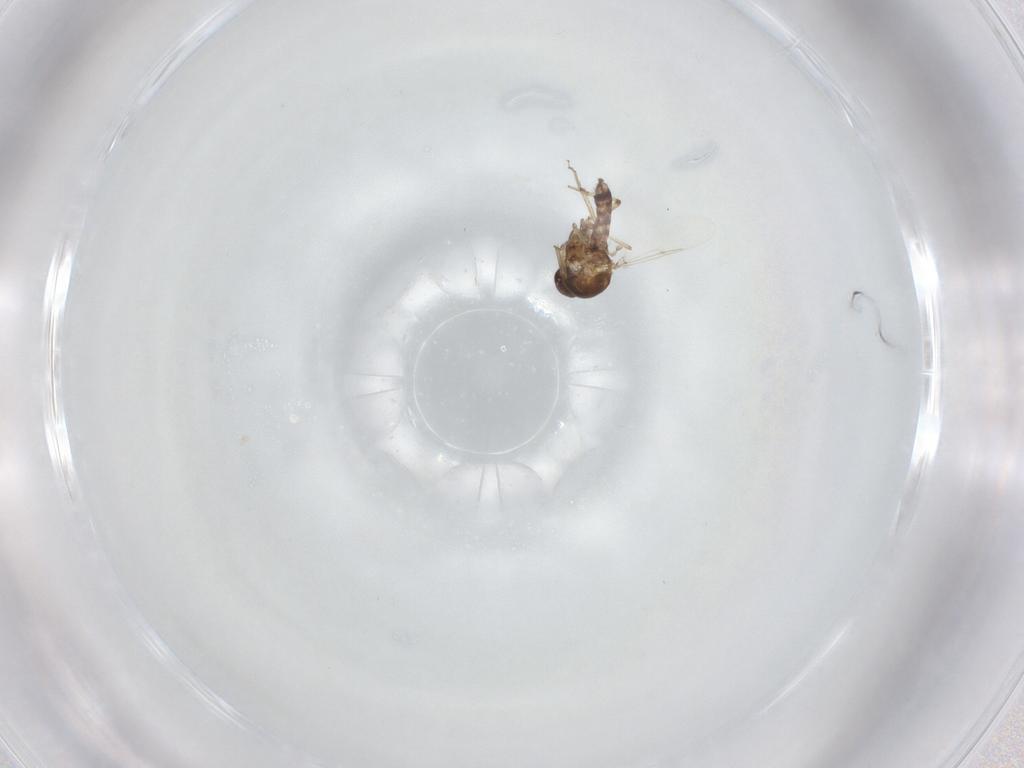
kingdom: Animalia
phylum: Arthropoda
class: Insecta
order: Diptera
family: Ceratopogonidae
